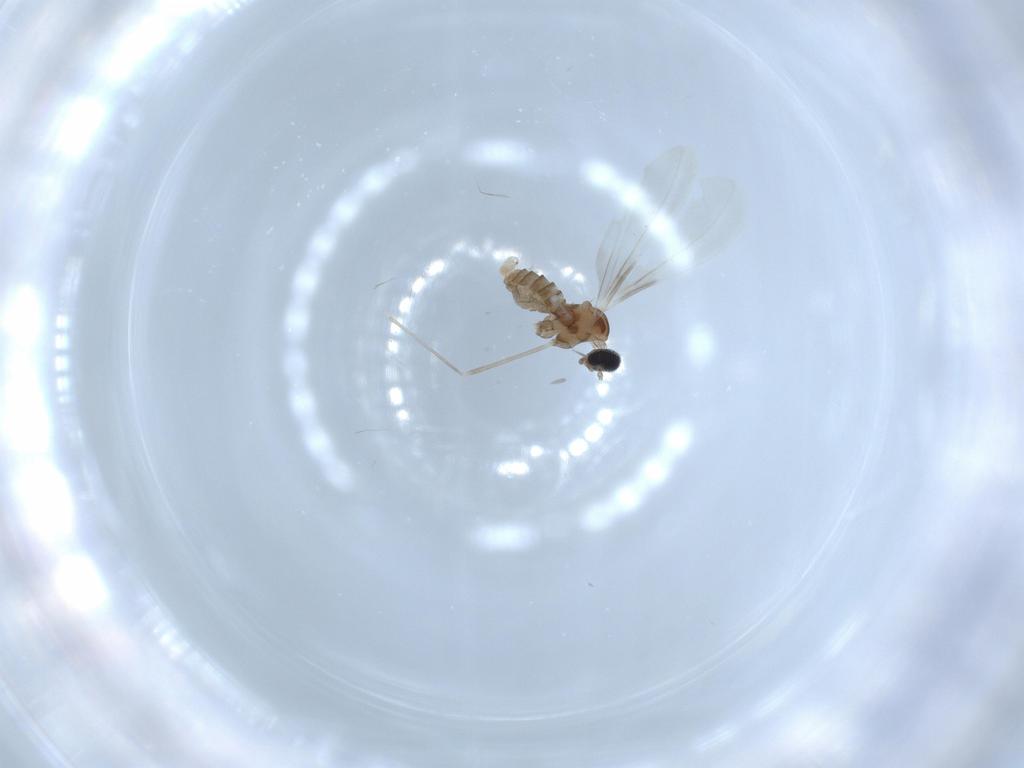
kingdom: Animalia
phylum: Arthropoda
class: Insecta
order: Diptera
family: Cecidomyiidae
